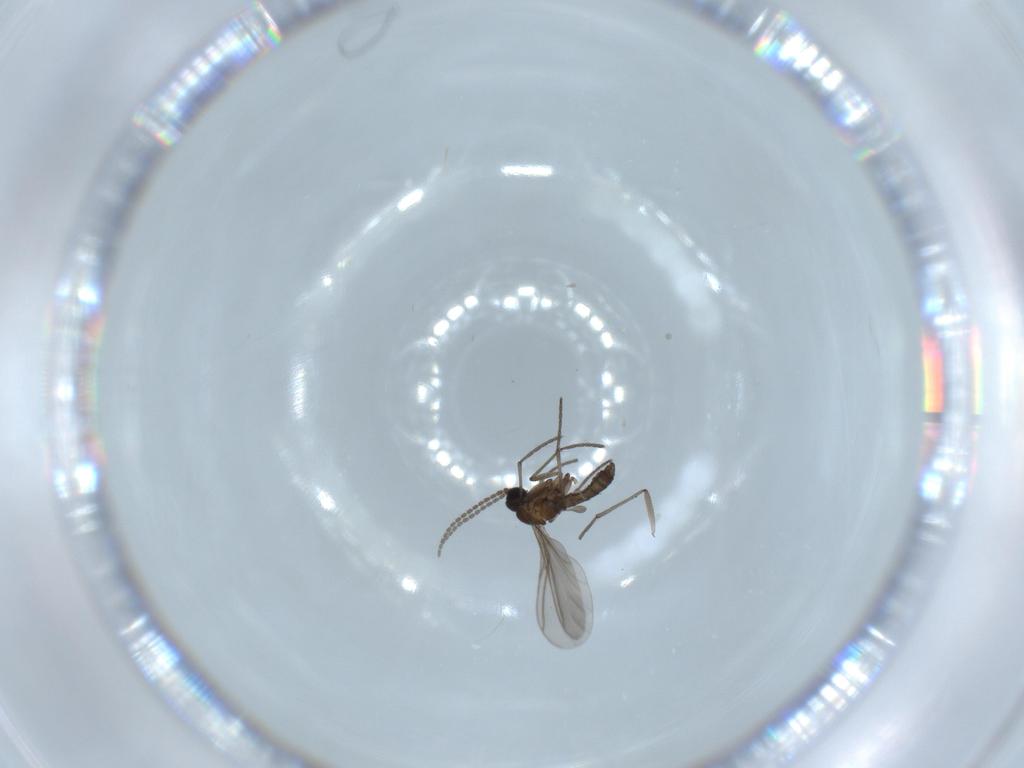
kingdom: Animalia
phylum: Arthropoda
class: Insecta
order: Diptera
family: Sciaridae
